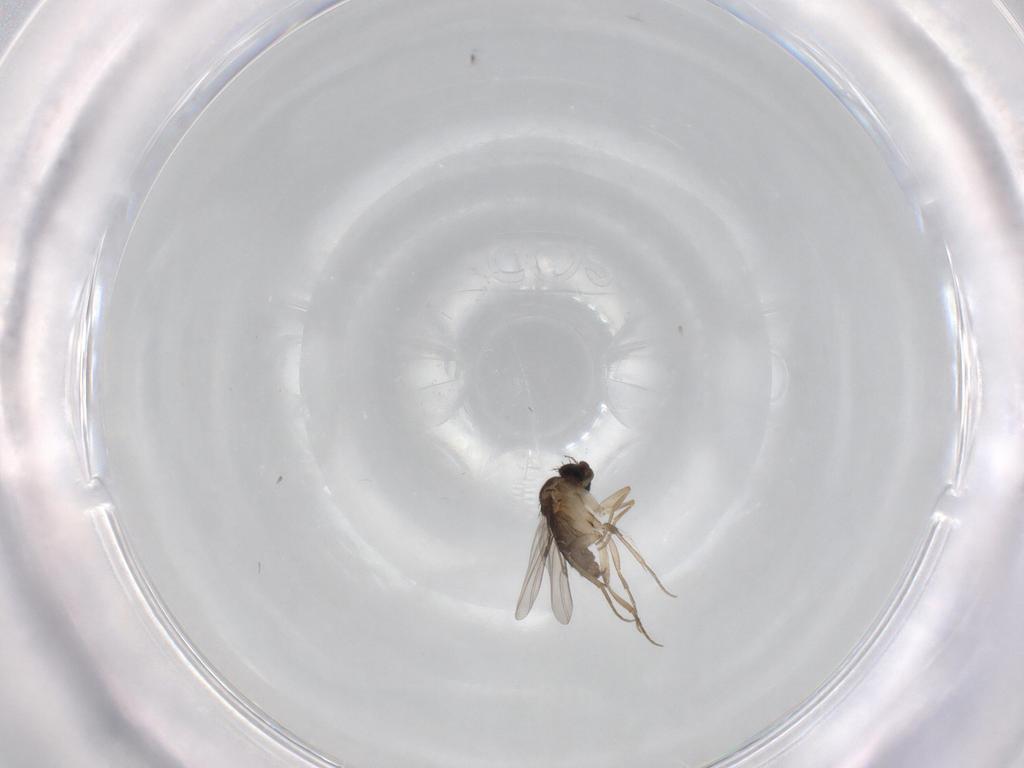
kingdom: Animalia
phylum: Arthropoda
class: Insecta
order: Diptera
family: Phoridae
